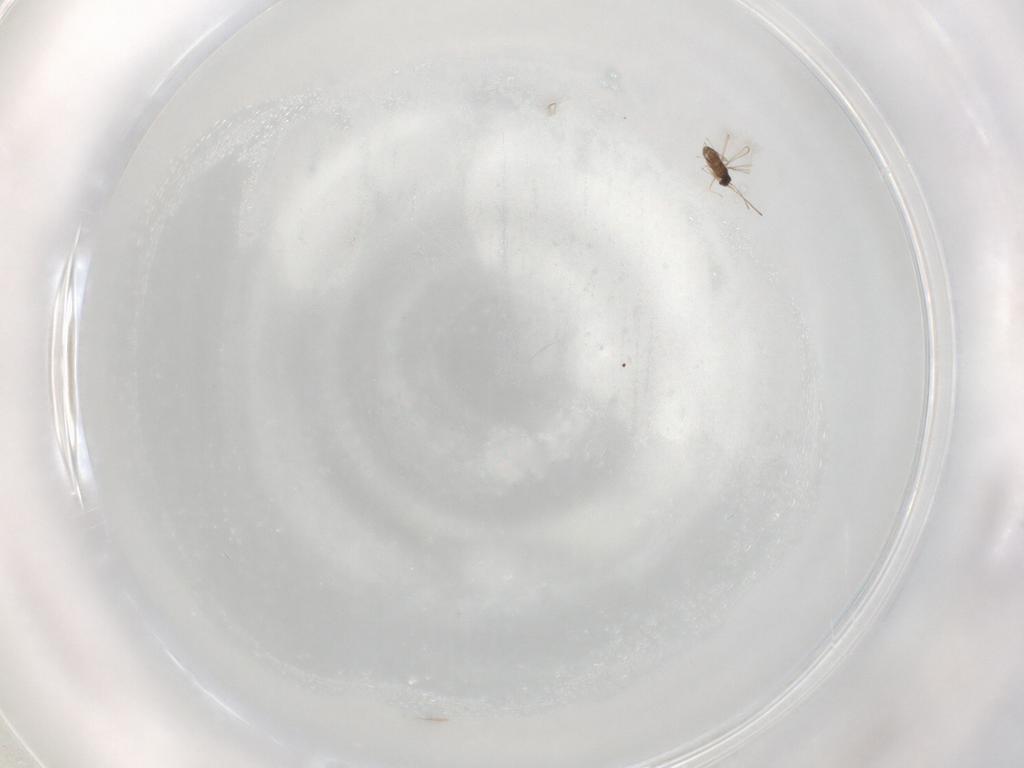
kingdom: Animalia
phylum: Arthropoda
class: Insecta
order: Hymenoptera
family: Mymaridae
